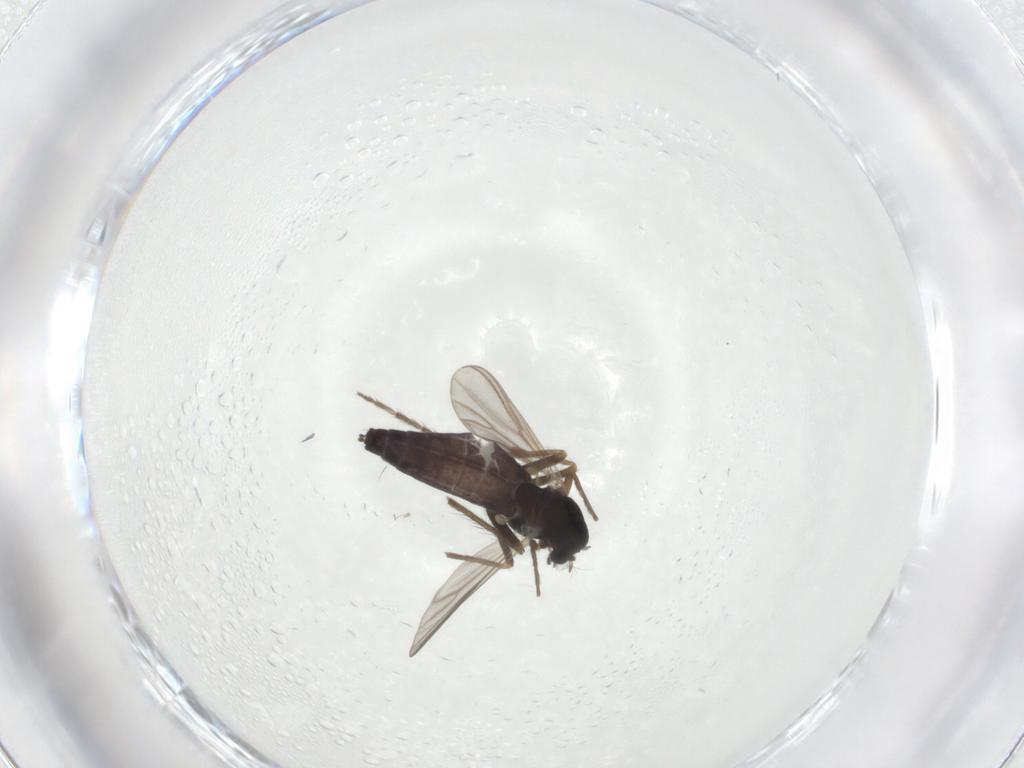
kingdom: Animalia
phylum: Arthropoda
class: Insecta
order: Diptera
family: Chironomidae
